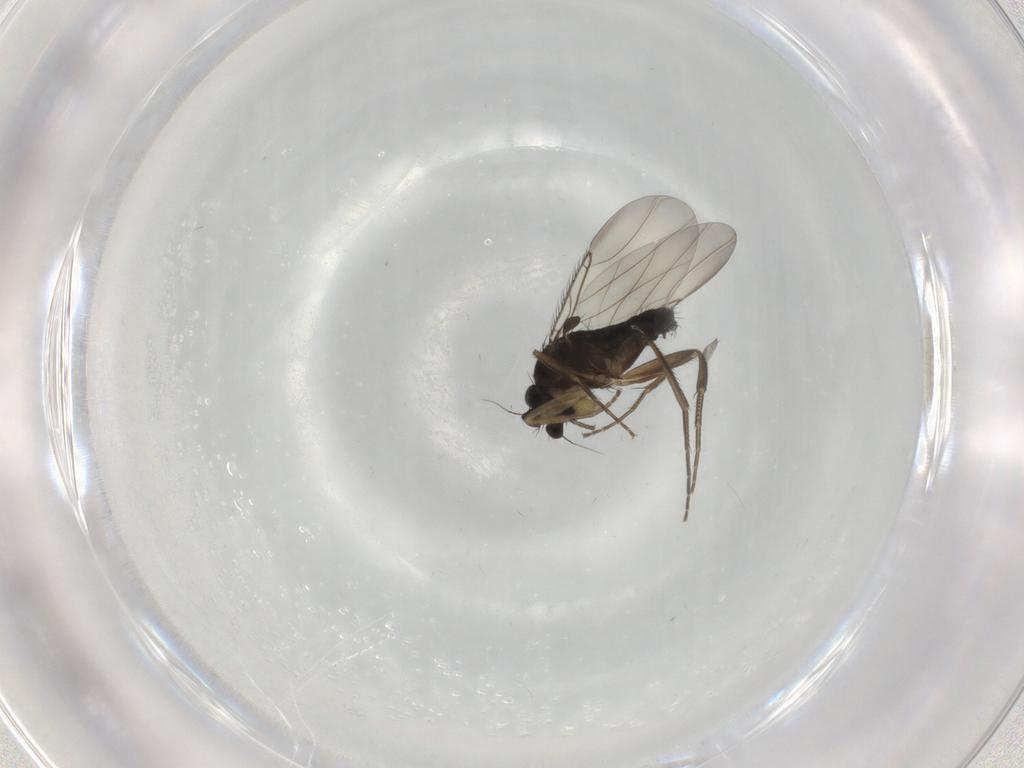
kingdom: Animalia
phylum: Arthropoda
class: Insecta
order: Diptera
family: Phoridae
